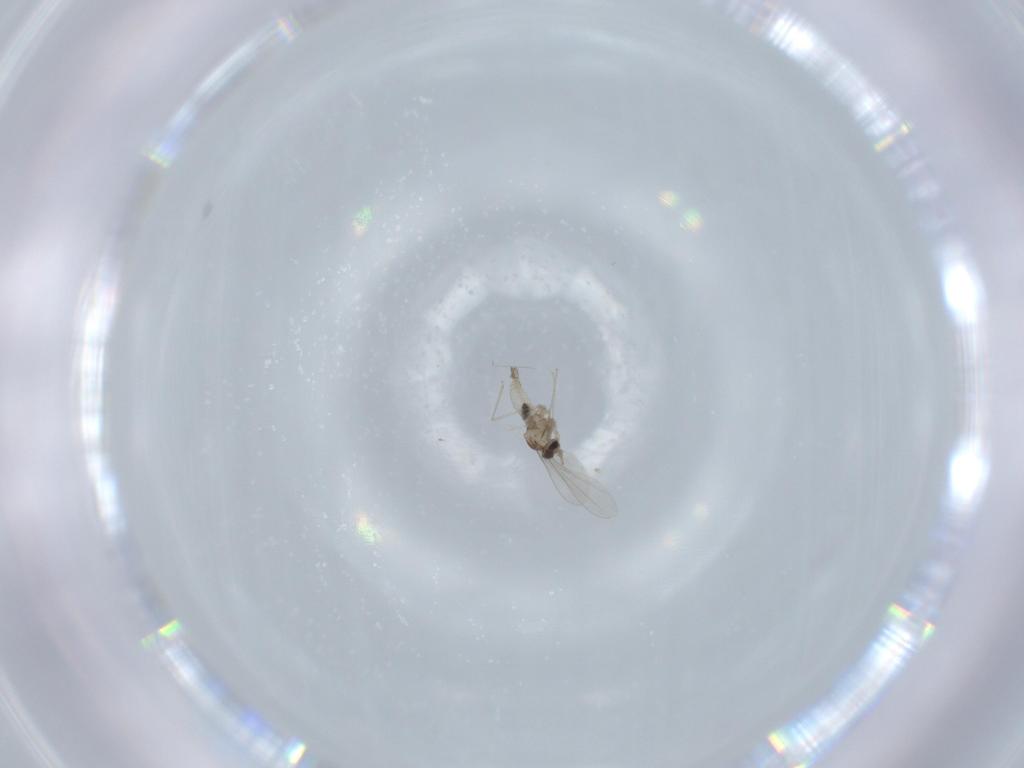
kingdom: Animalia
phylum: Arthropoda
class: Insecta
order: Diptera
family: Cecidomyiidae
